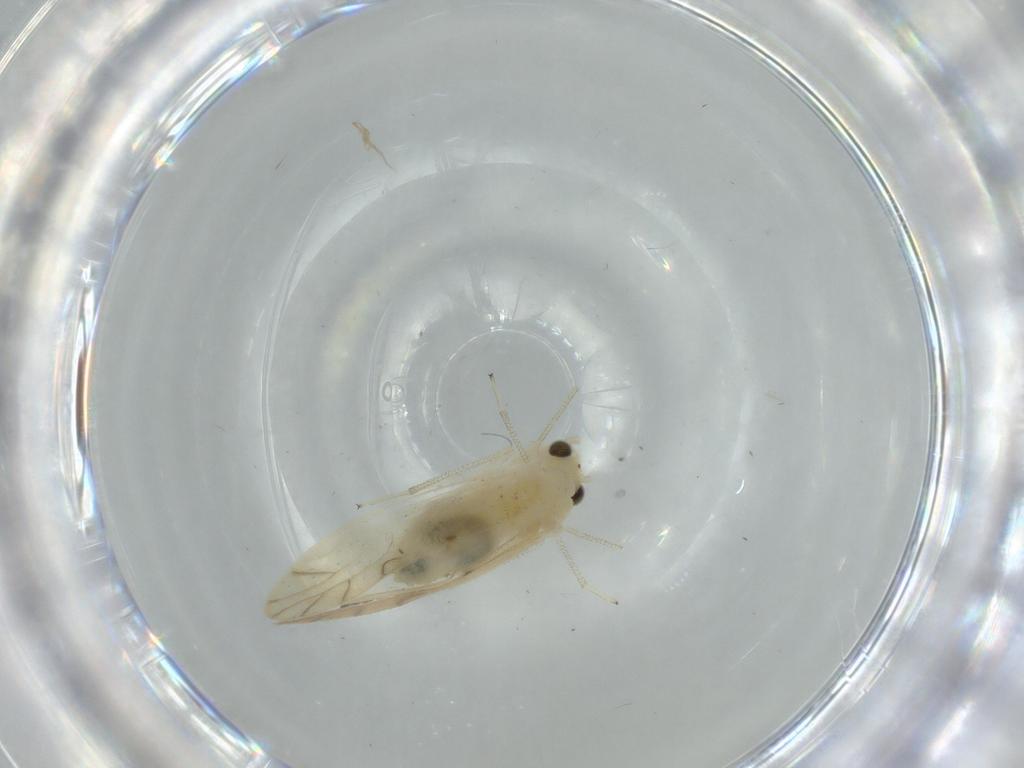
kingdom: Animalia
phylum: Arthropoda
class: Insecta
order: Psocodea
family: Caeciliusidae
